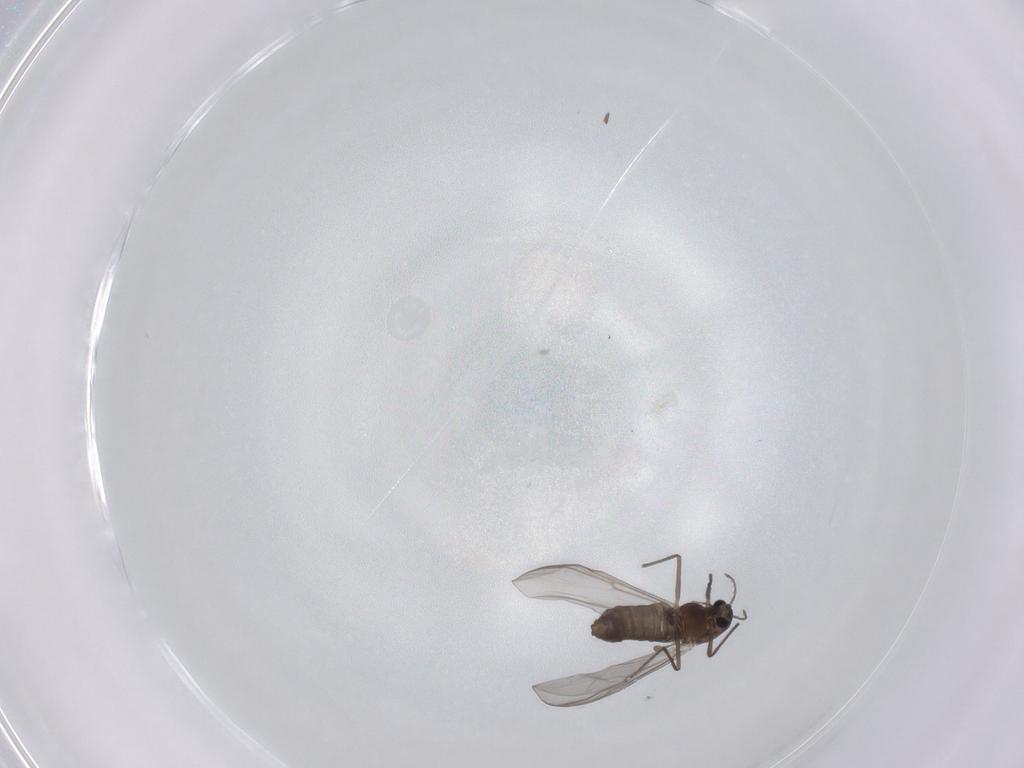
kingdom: Animalia
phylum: Arthropoda
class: Insecta
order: Diptera
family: Chironomidae
